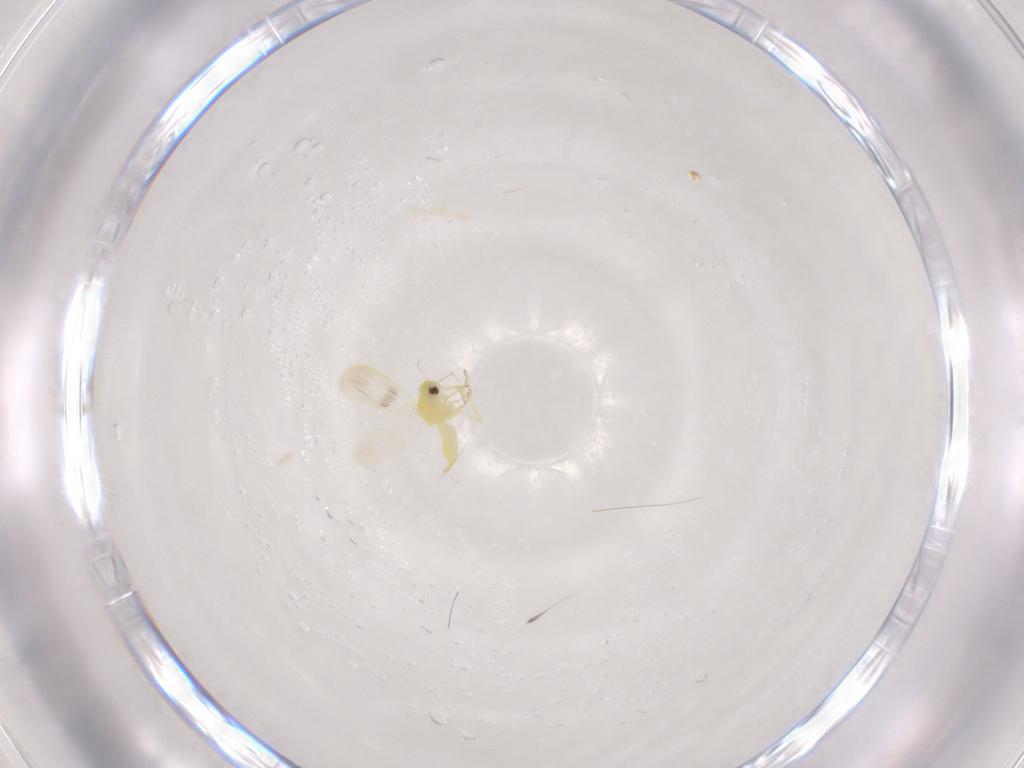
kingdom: Animalia
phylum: Arthropoda
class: Insecta
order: Hemiptera
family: Aleyrodidae
